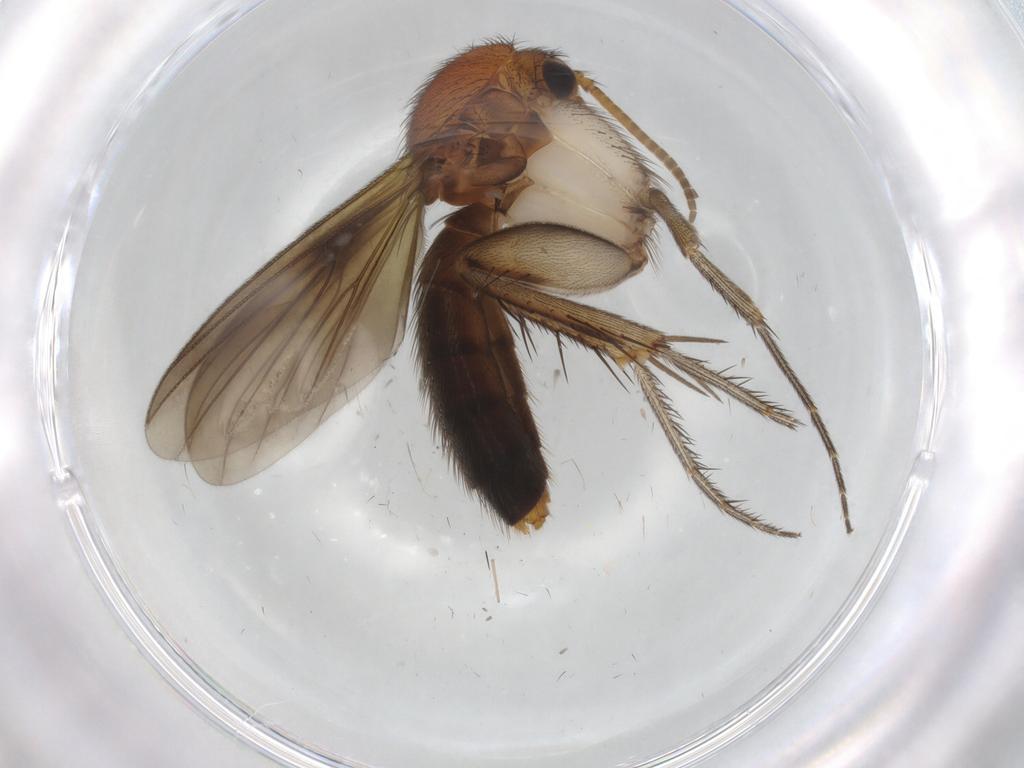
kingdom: Animalia
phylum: Arthropoda
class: Insecta
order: Diptera
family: Mycetophilidae
